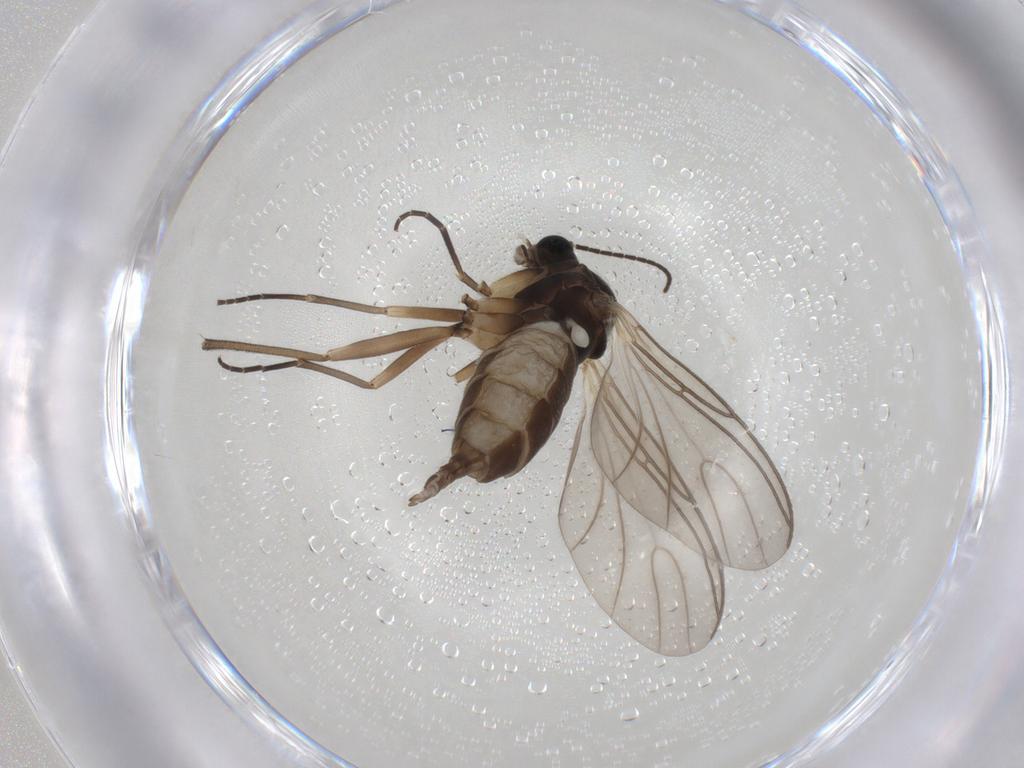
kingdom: Animalia
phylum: Arthropoda
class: Insecta
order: Diptera
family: Sciaridae
